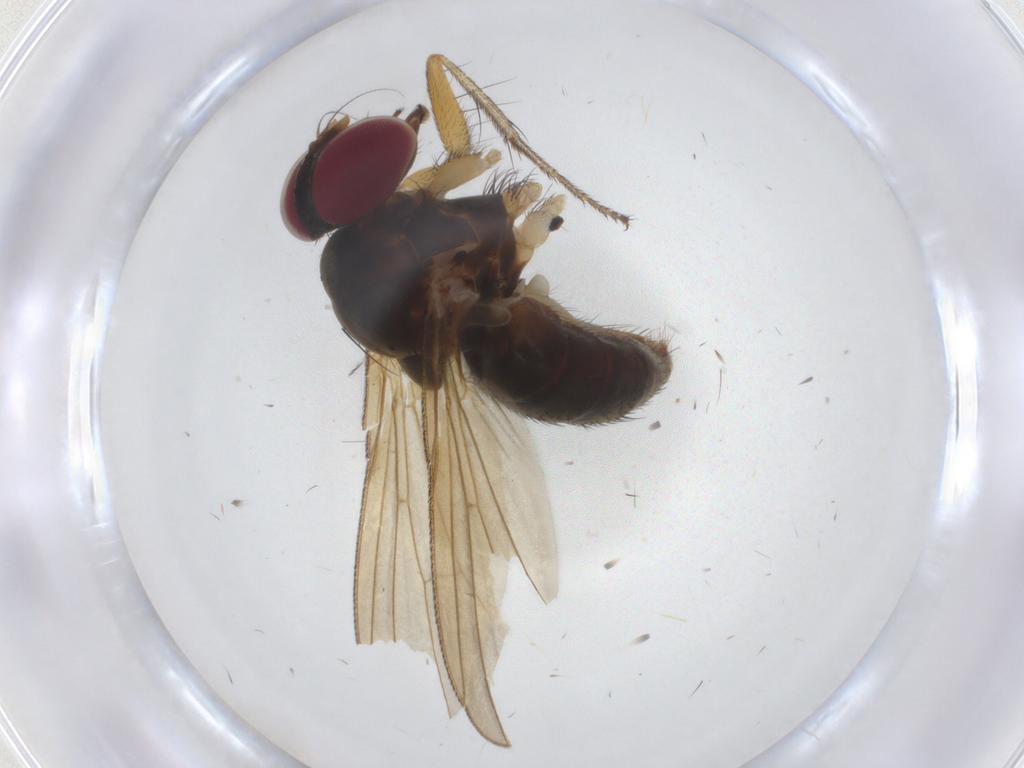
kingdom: Animalia
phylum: Arthropoda
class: Insecta
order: Diptera
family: Anthomyiidae
